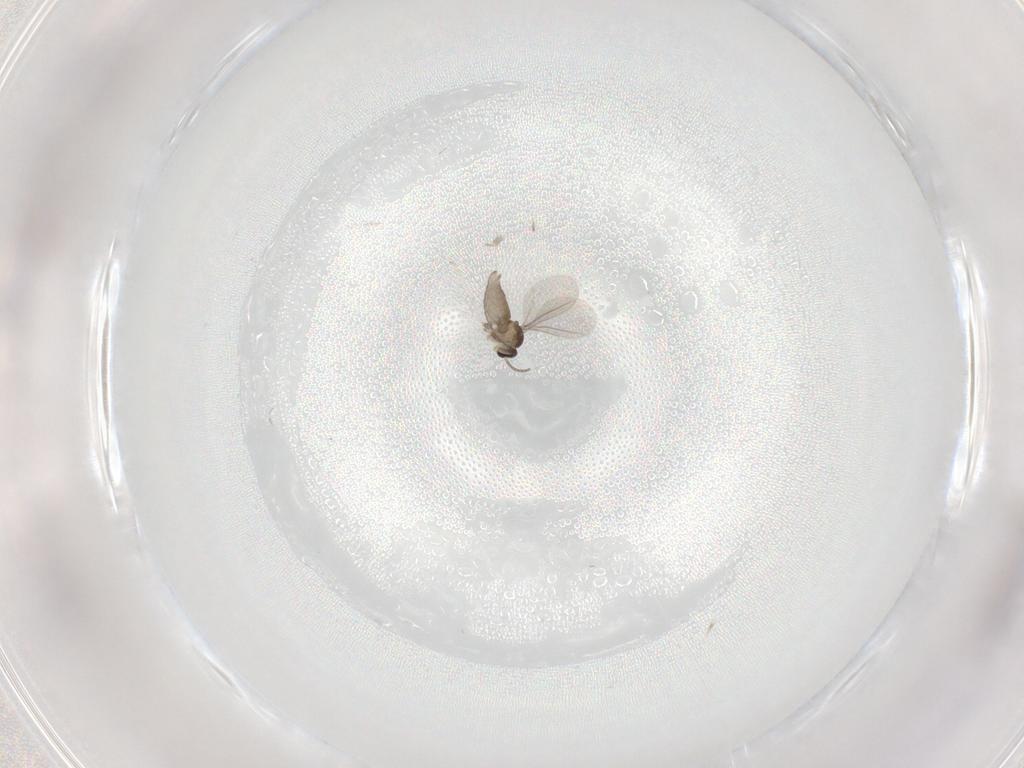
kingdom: Animalia
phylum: Arthropoda
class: Insecta
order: Diptera
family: Cecidomyiidae
